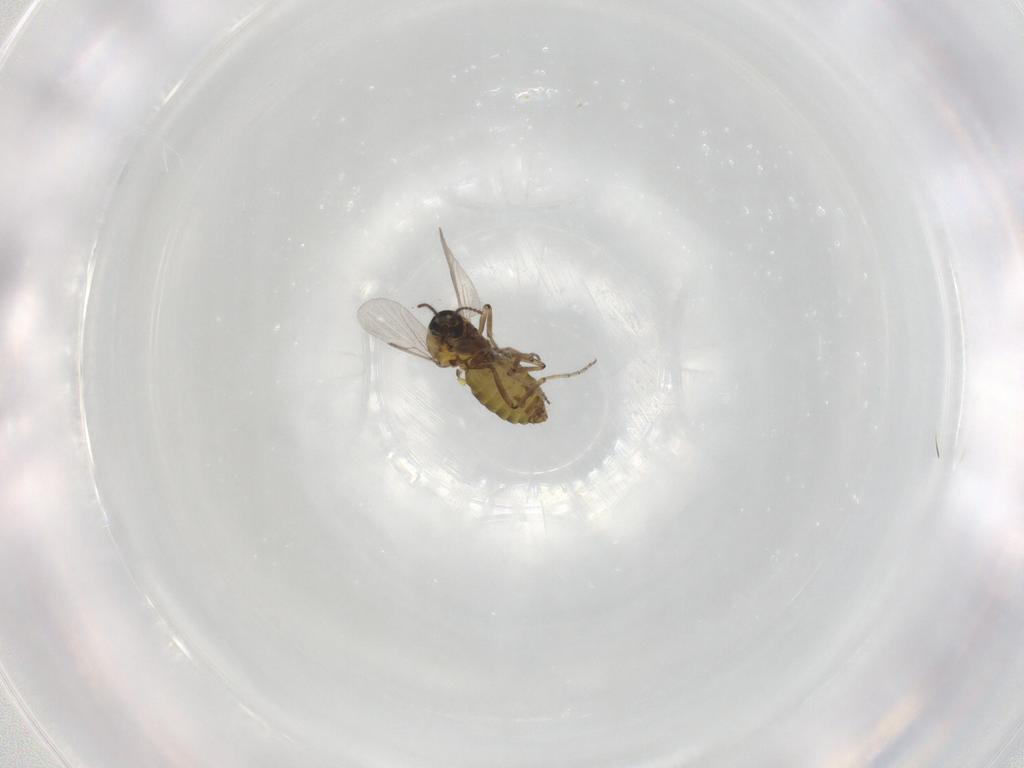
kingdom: Animalia
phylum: Arthropoda
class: Insecta
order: Diptera
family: Ceratopogonidae
